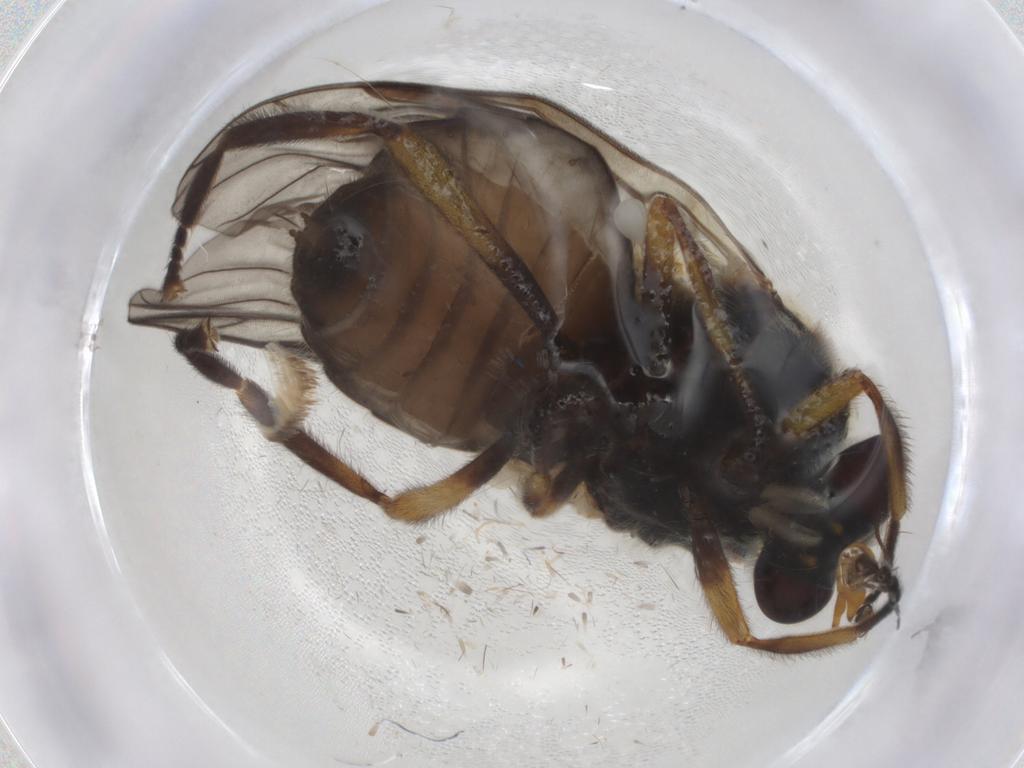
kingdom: Animalia
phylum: Arthropoda
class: Insecta
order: Diptera
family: Stratiomyidae
